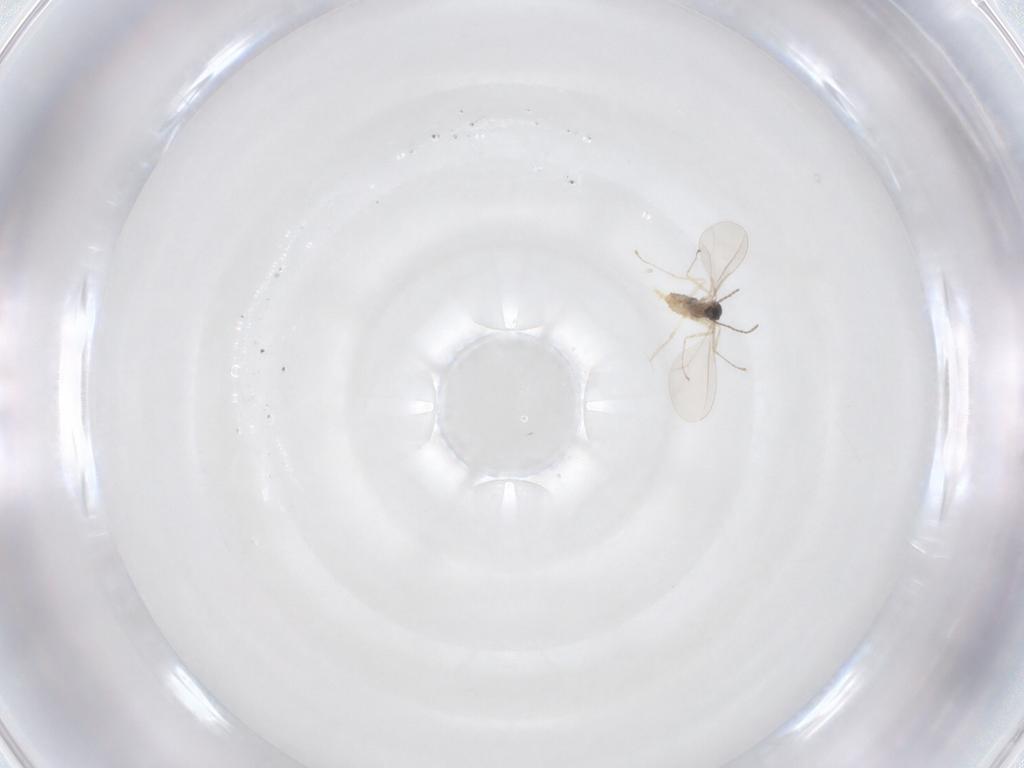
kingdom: Animalia
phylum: Arthropoda
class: Insecta
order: Diptera
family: Cecidomyiidae
